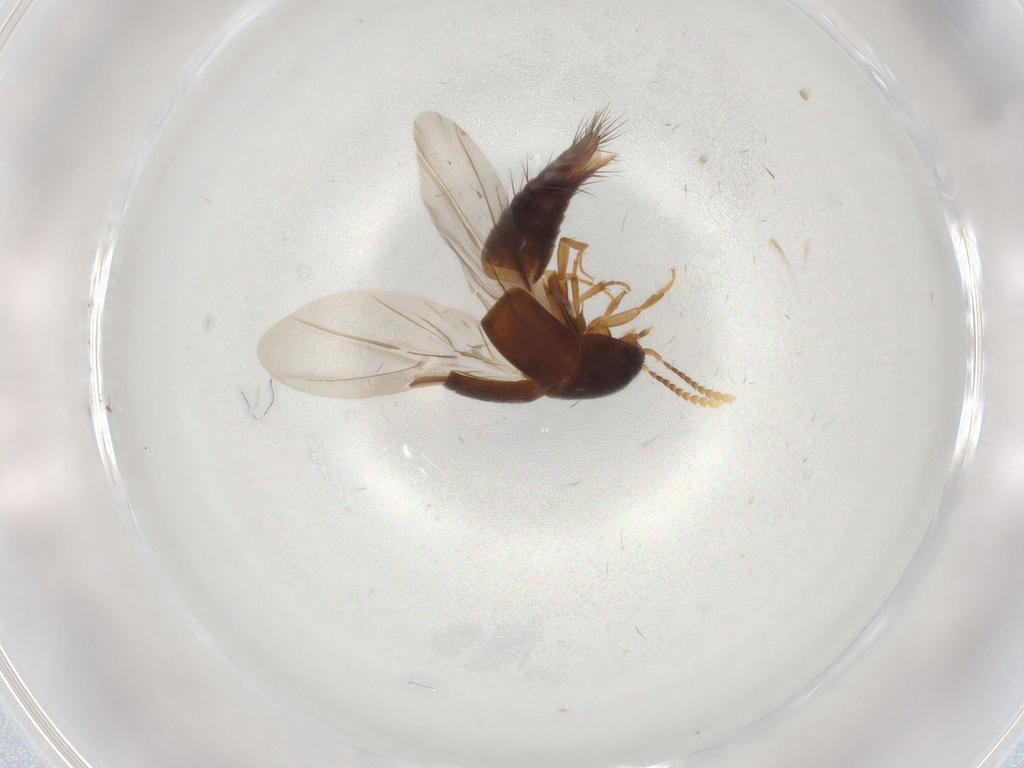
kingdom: Animalia
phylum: Arthropoda
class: Insecta
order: Coleoptera
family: Staphylinidae
